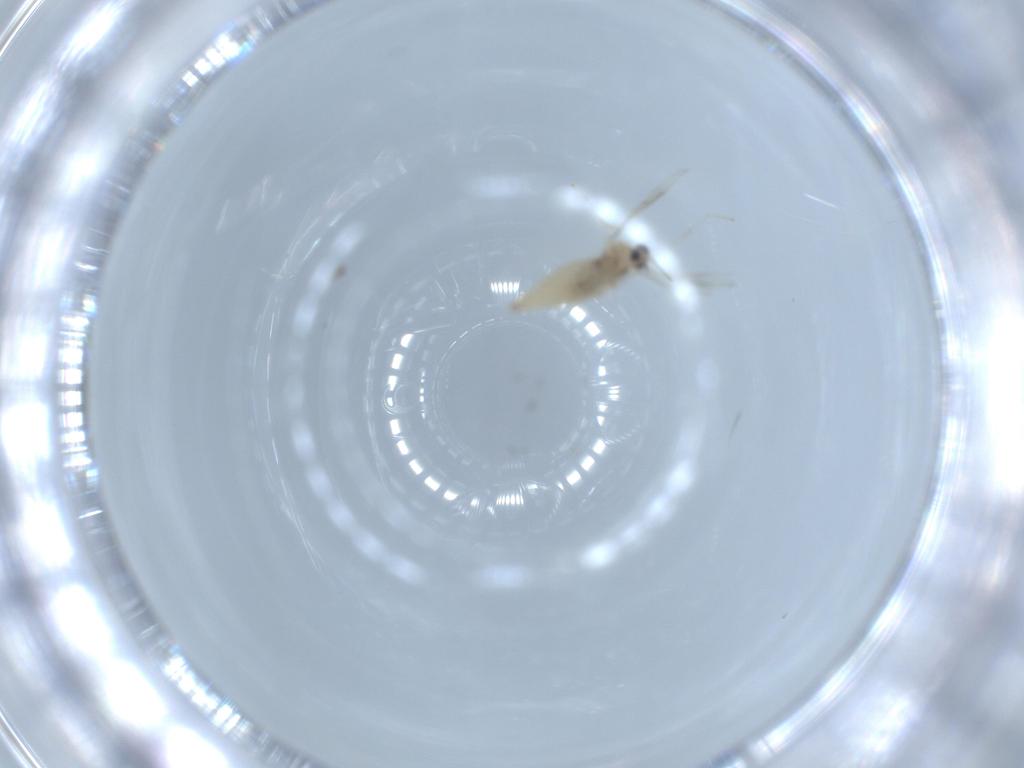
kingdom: Animalia
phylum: Arthropoda
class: Insecta
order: Diptera
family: Cecidomyiidae
